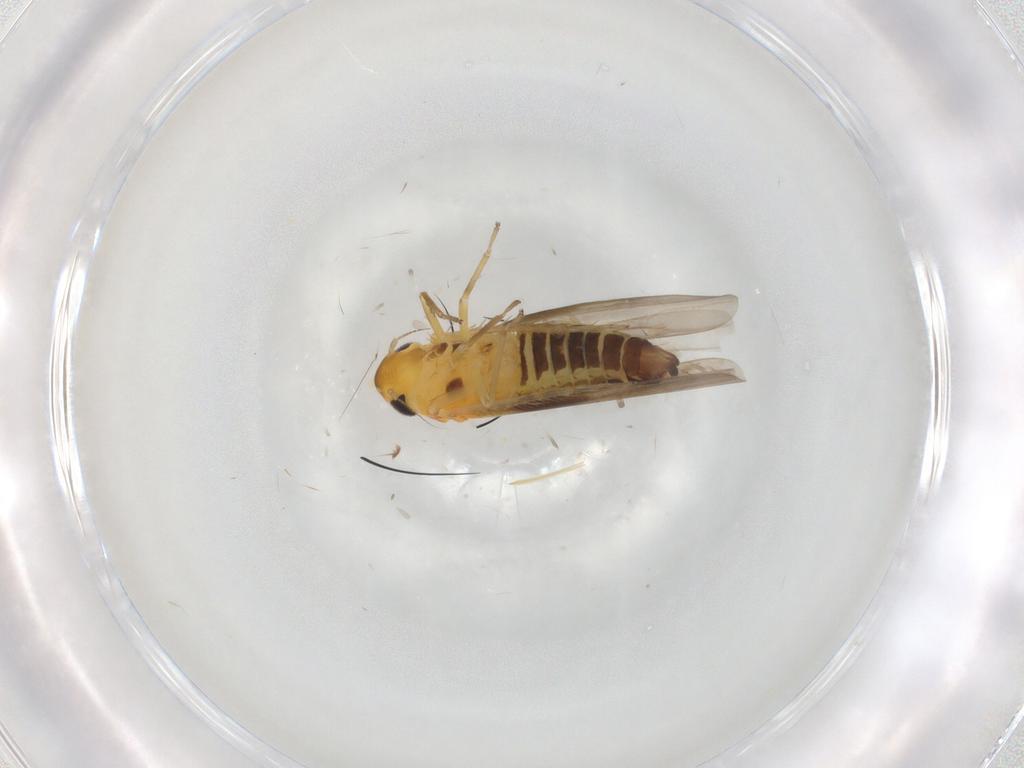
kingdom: Animalia
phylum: Arthropoda
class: Insecta
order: Hemiptera
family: Cicadellidae
